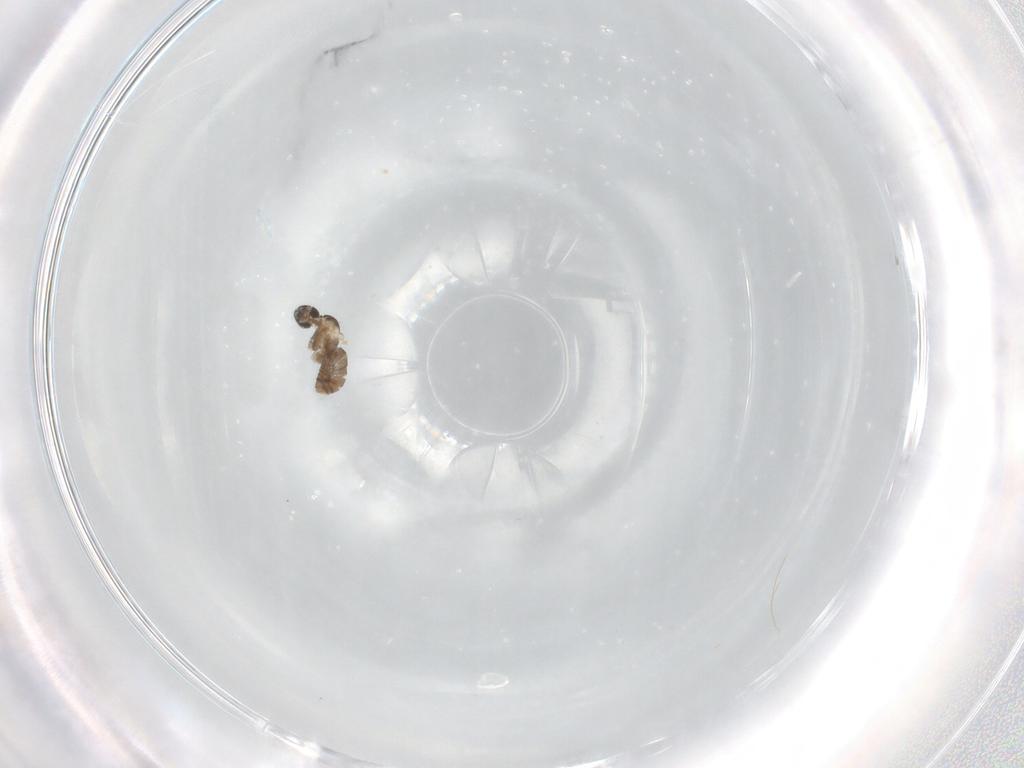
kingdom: Animalia
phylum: Arthropoda
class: Insecta
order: Diptera
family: Cecidomyiidae
